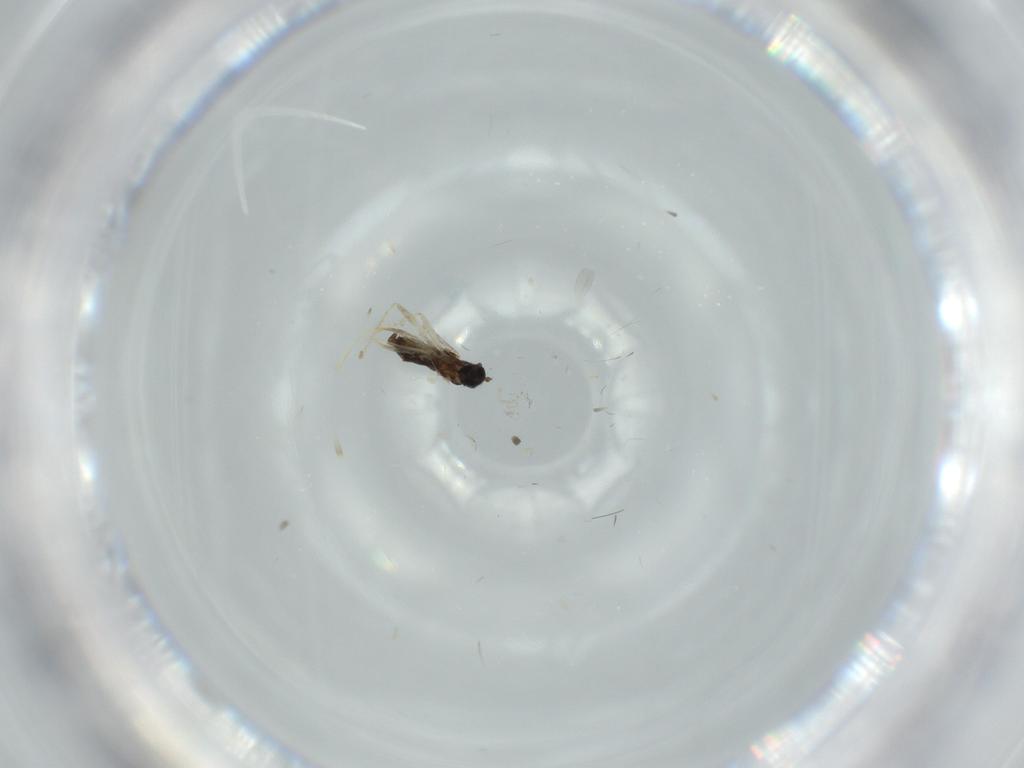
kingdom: Animalia
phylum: Arthropoda
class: Insecta
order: Diptera
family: Cecidomyiidae
